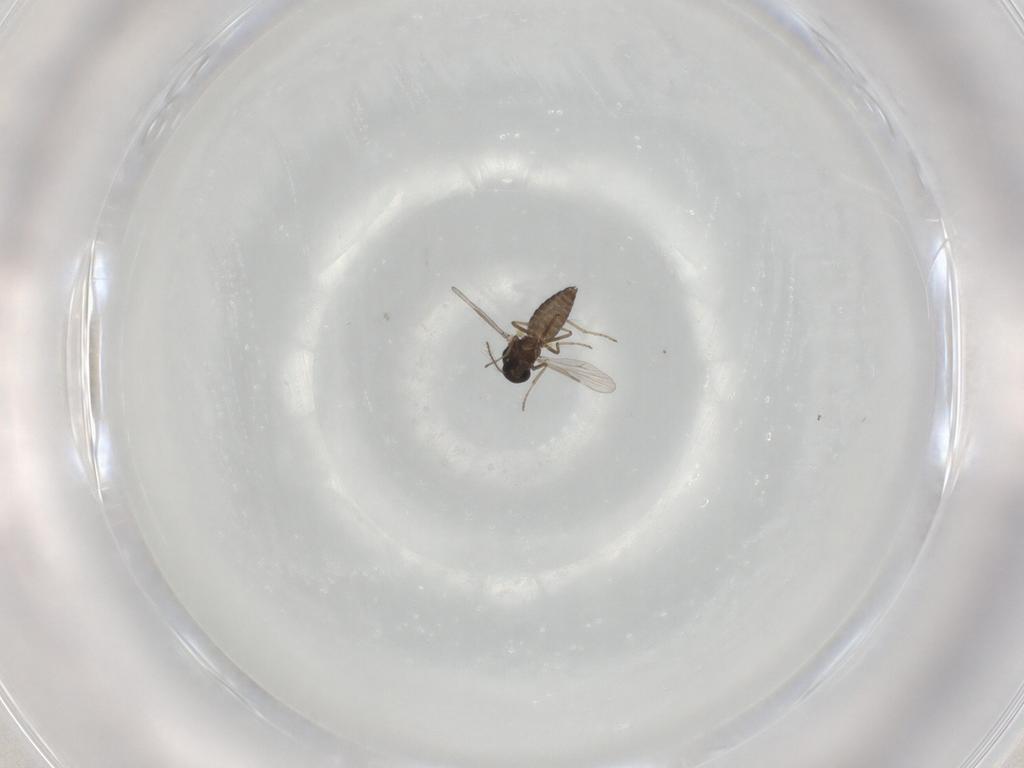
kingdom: Animalia
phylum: Arthropoda
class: Insecta
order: Diptera
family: Ceratopogonidae
